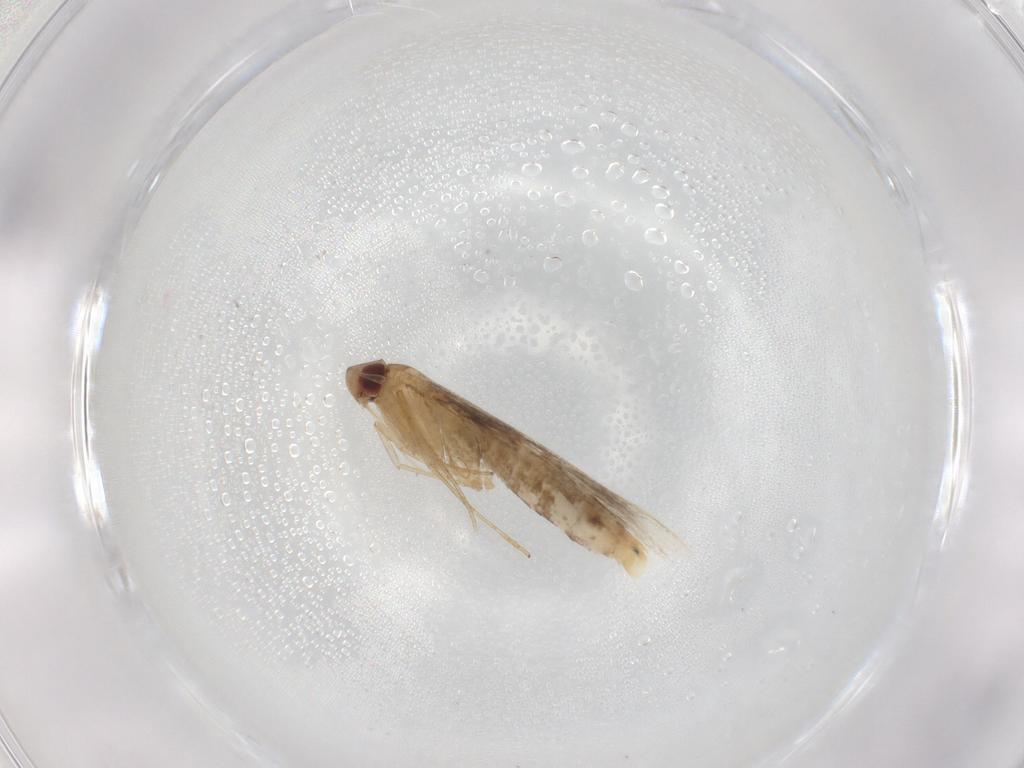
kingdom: Animalia
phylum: Arthropoda
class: Insecta
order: Lepidoptera
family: Cosmopterigidae
